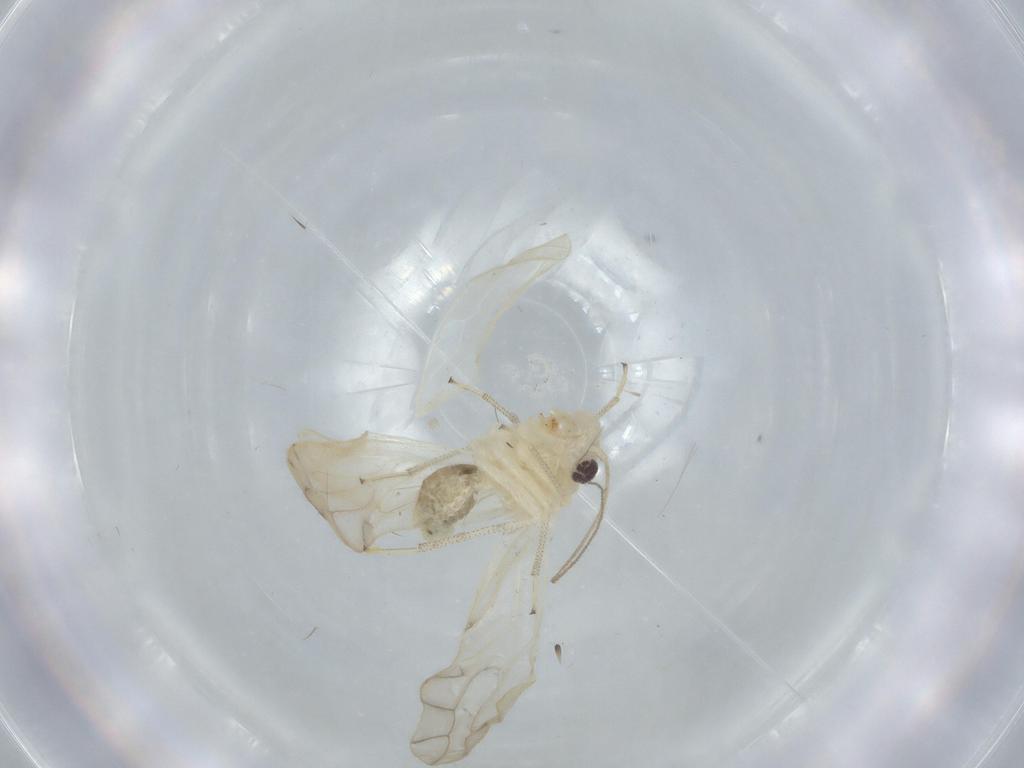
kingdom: Animalia
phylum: Arthropoda
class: Insecta
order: Psocodea
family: Caeciliusidae
